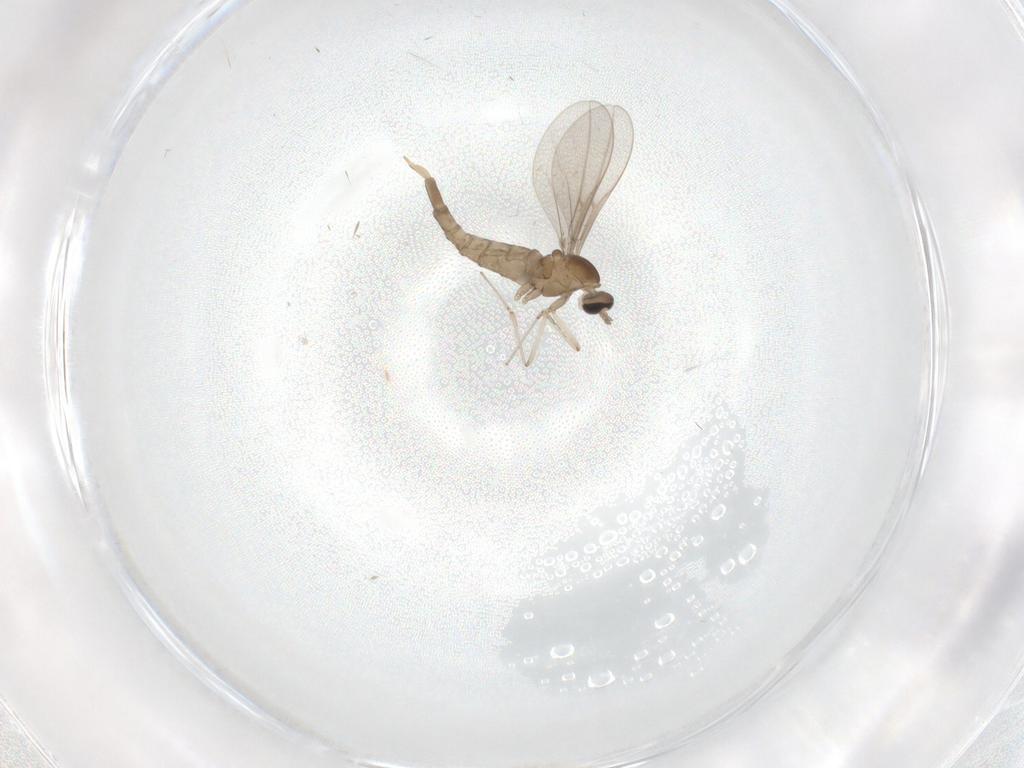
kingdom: Animalia
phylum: Arthropoda
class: Insecta
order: Diptera
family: Cecidomyiidae
